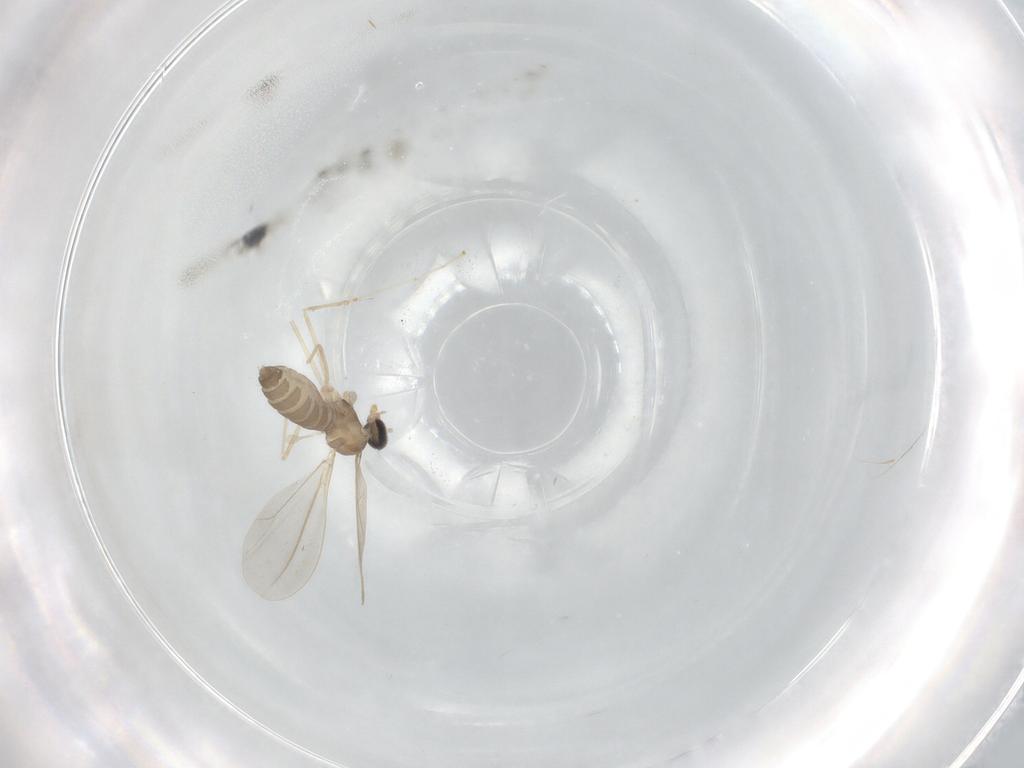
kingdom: Animalia
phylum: Arthropoda
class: Insecta
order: Diptera
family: Cecidomyiidae
